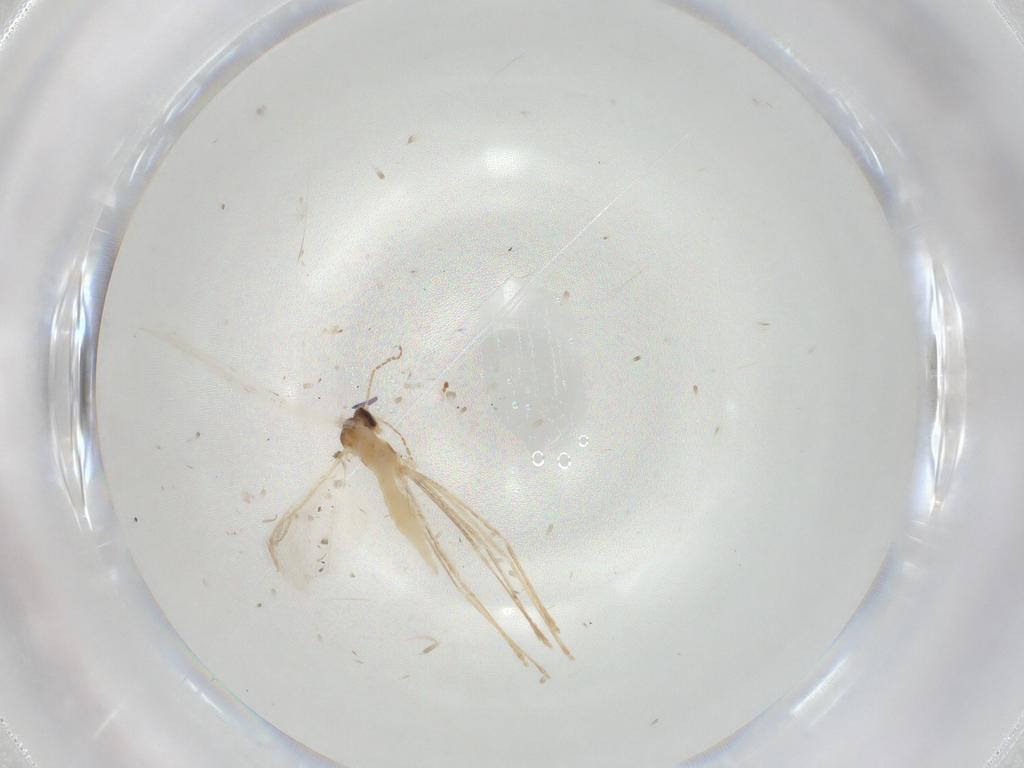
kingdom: Animalia
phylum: Arthropoda
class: Insecta
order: Diptera
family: Cecidomyiidae
